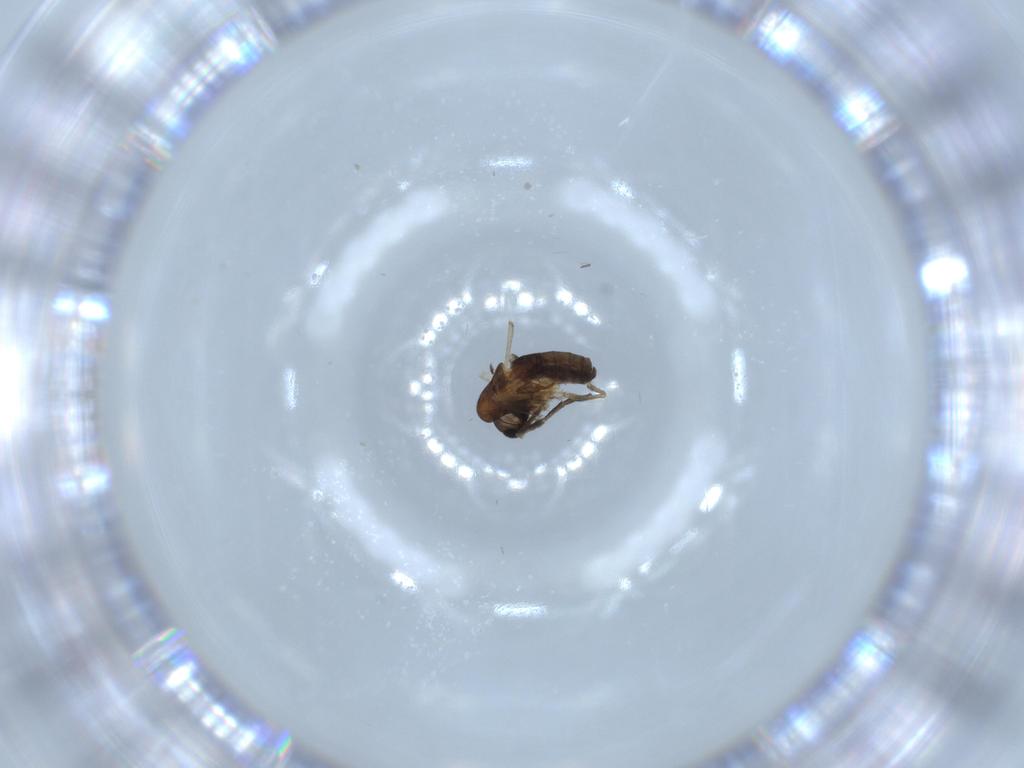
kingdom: Animalia
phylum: Arthropoda
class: Insecta
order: Diptera
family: Psychodidae
